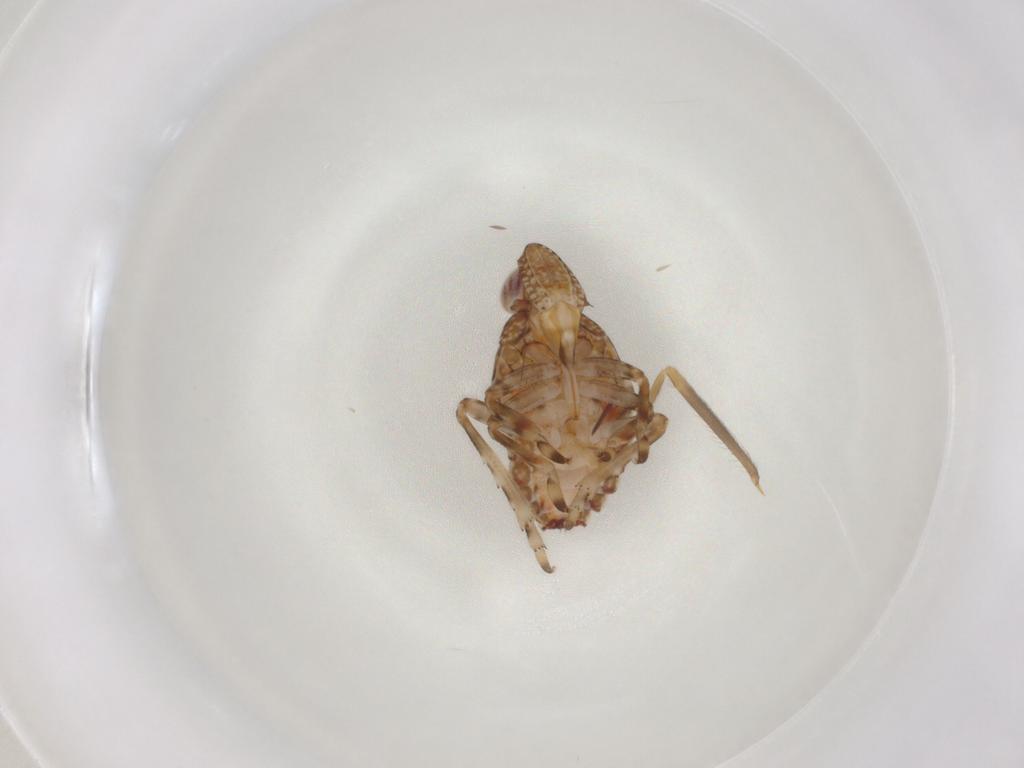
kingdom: Animalia
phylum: Arthropoda
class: Insecta
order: Hemiptera
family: Tropiduchidae
